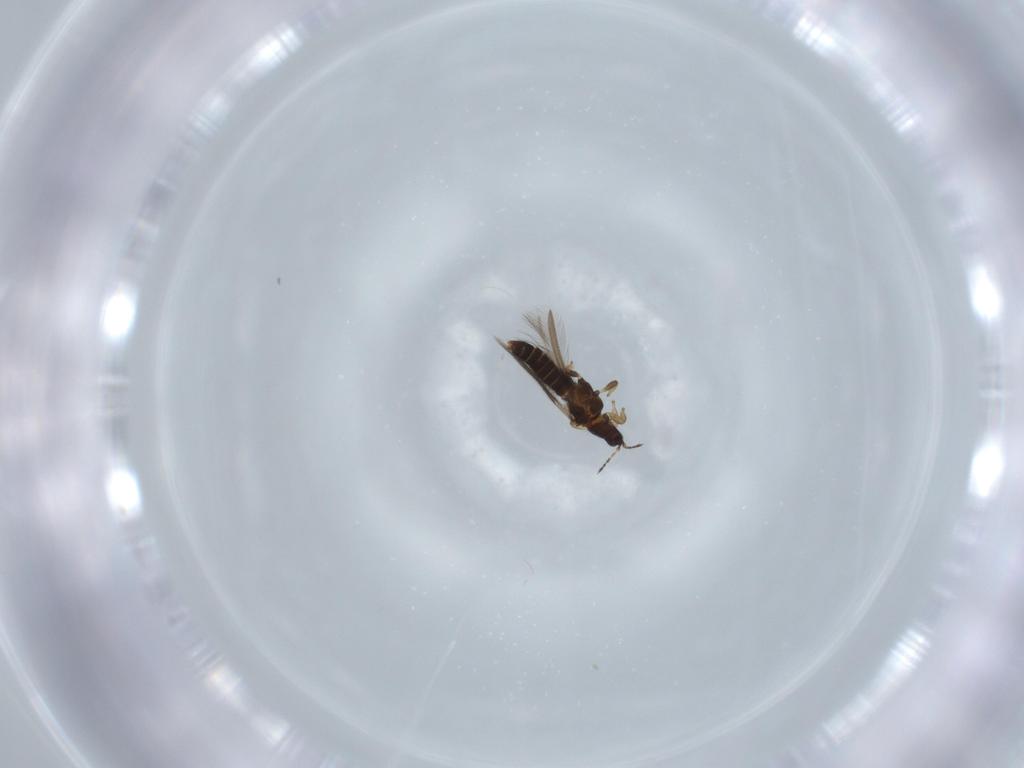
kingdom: Animalia
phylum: Arthropoda
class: Insecta
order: Thysanoptera
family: Thripidae
